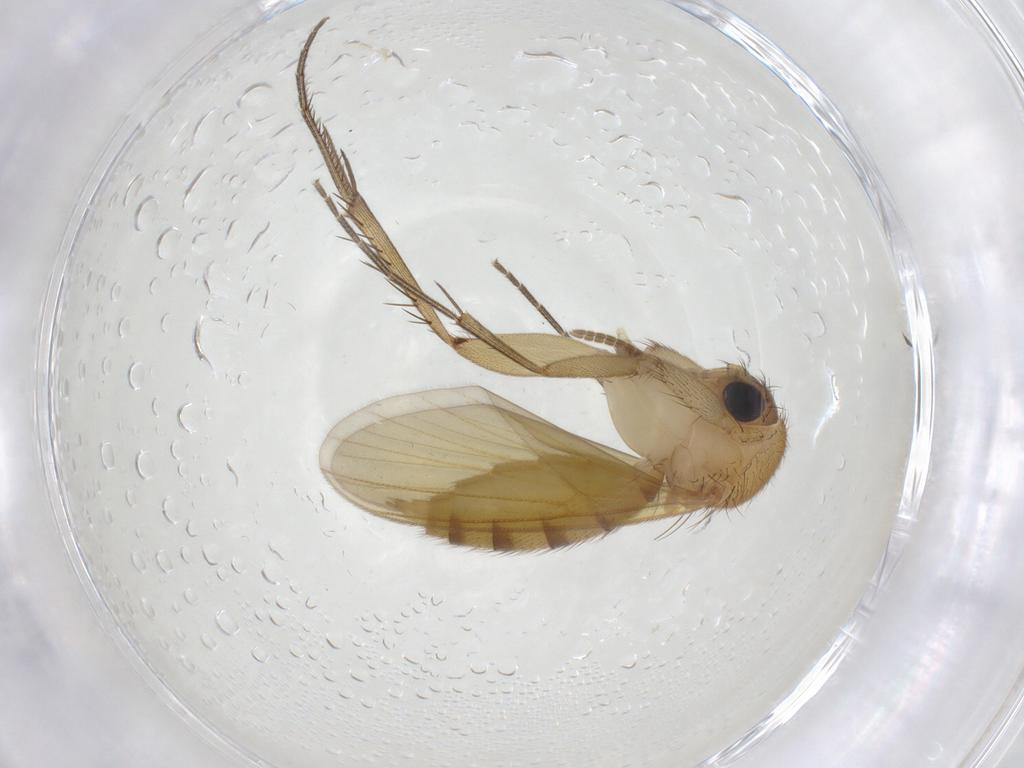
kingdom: Animalia
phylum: Arthropoda
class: Insecta
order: Diptera
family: Mycetophilidae
